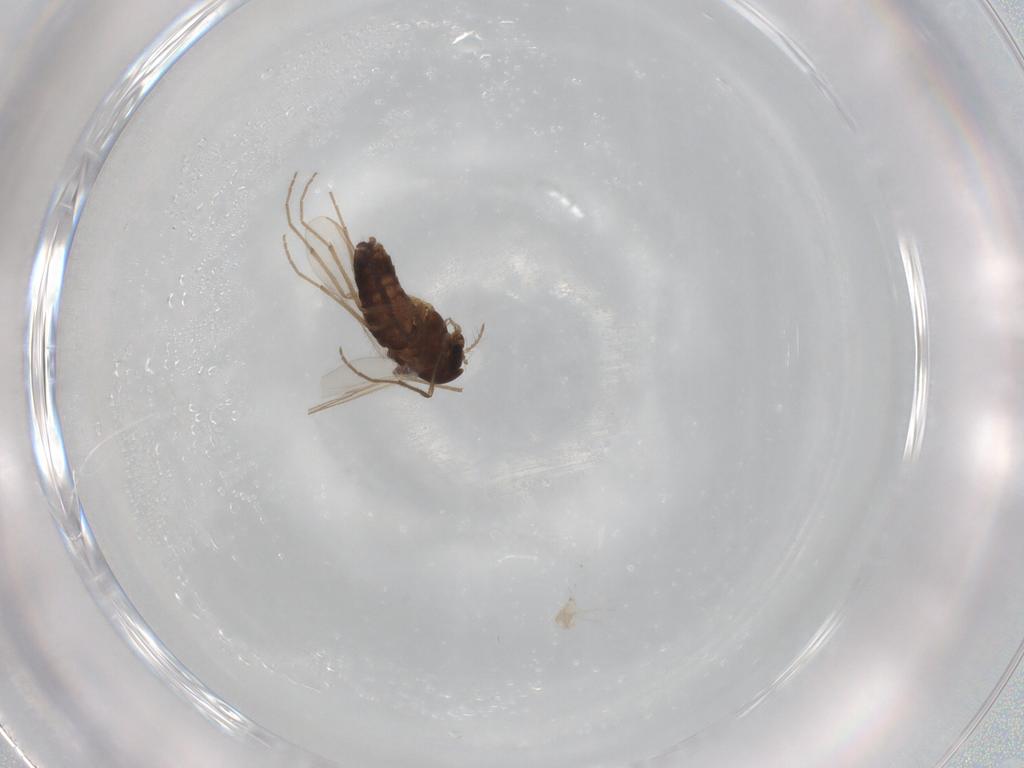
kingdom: Animalia
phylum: Arthropoda
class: Insecta
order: Diptera
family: Chironomidae
